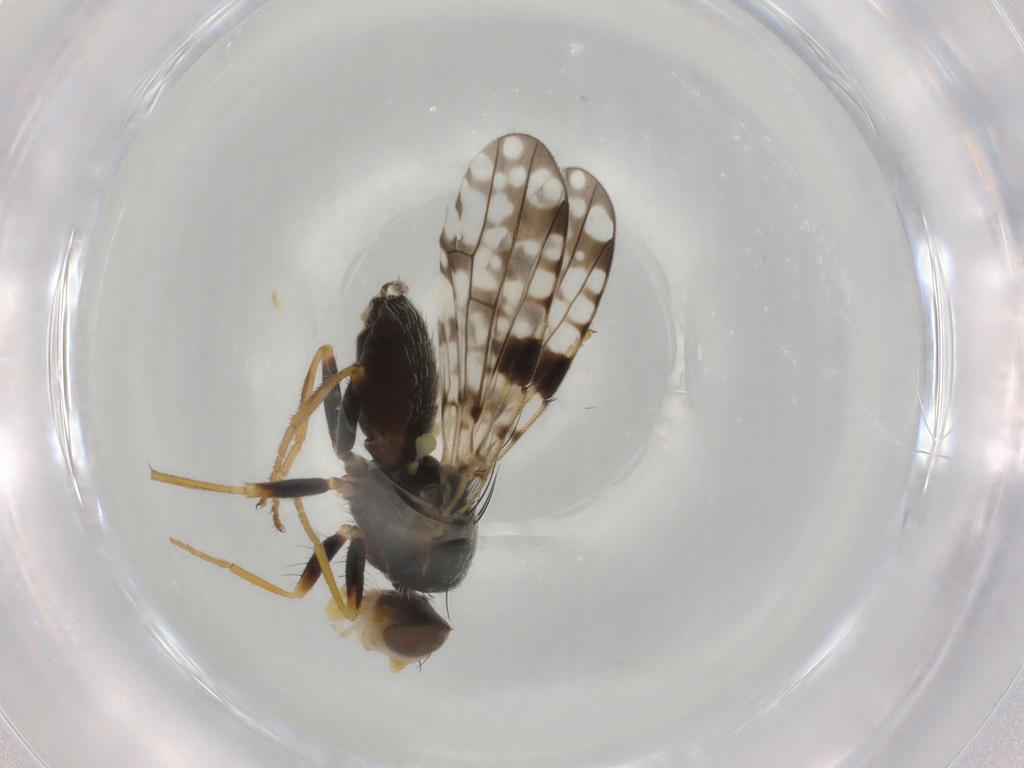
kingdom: Animalia
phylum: Arthropoda
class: Insecta
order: Diptera
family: Tephritidae
